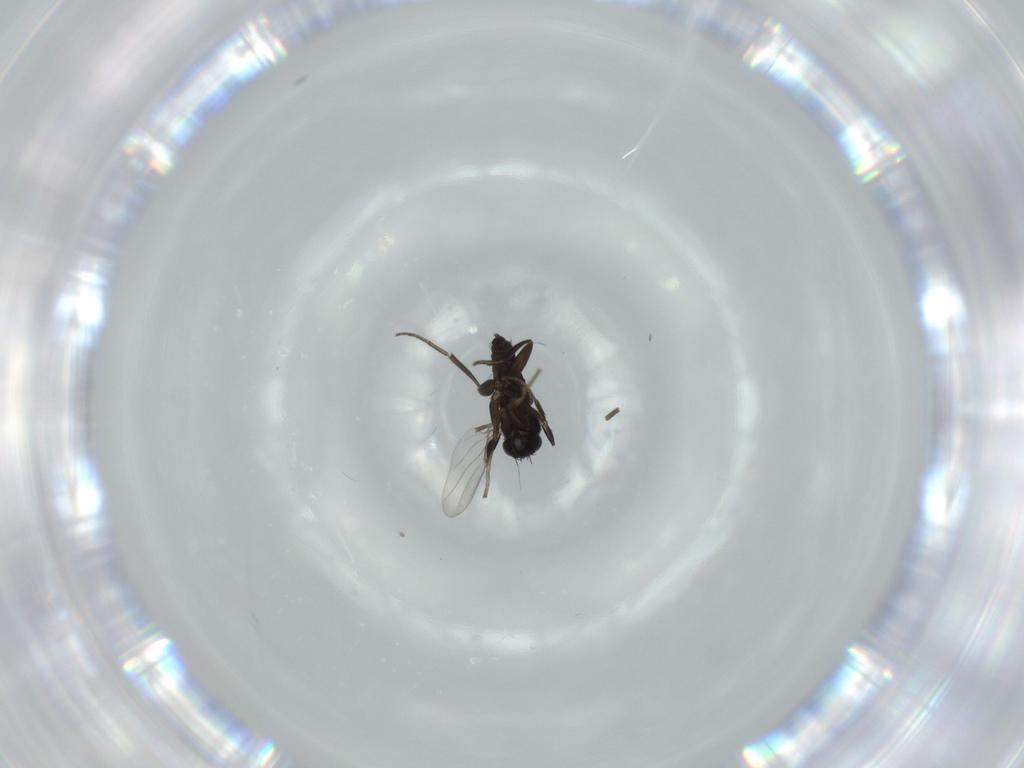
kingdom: Animalia
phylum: Arthropoda
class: Insecta
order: Diptera
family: Phoridae
